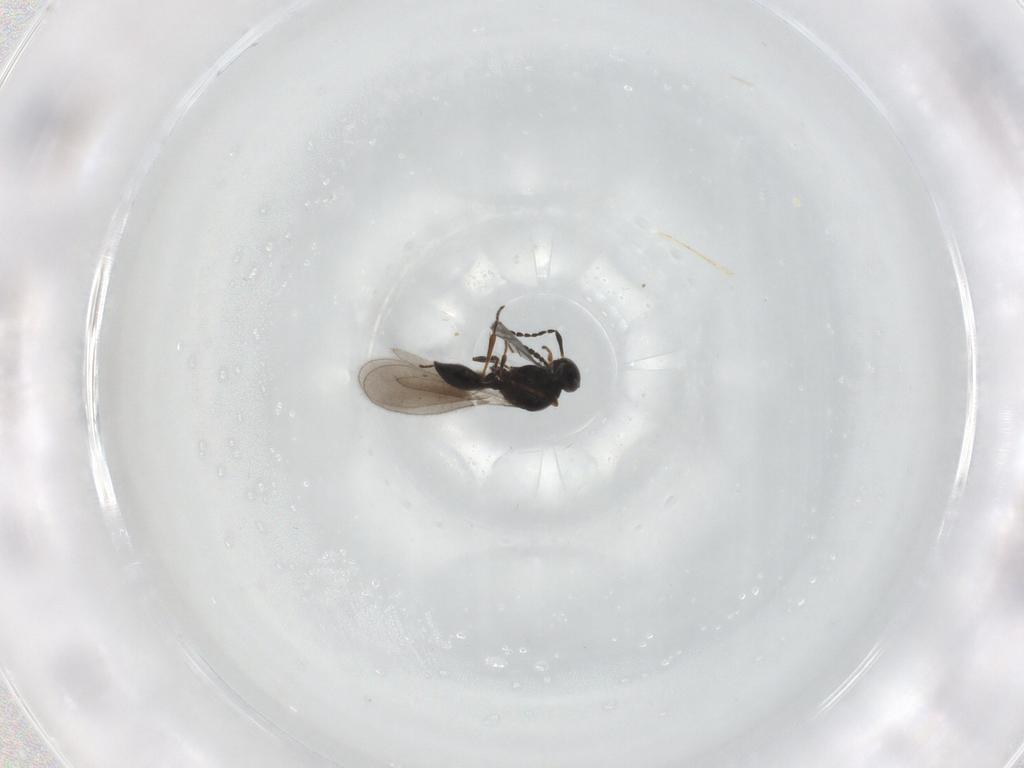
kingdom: Animalia
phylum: Arthropoda
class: Insecta
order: Hymenoptera
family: Platygastridae
